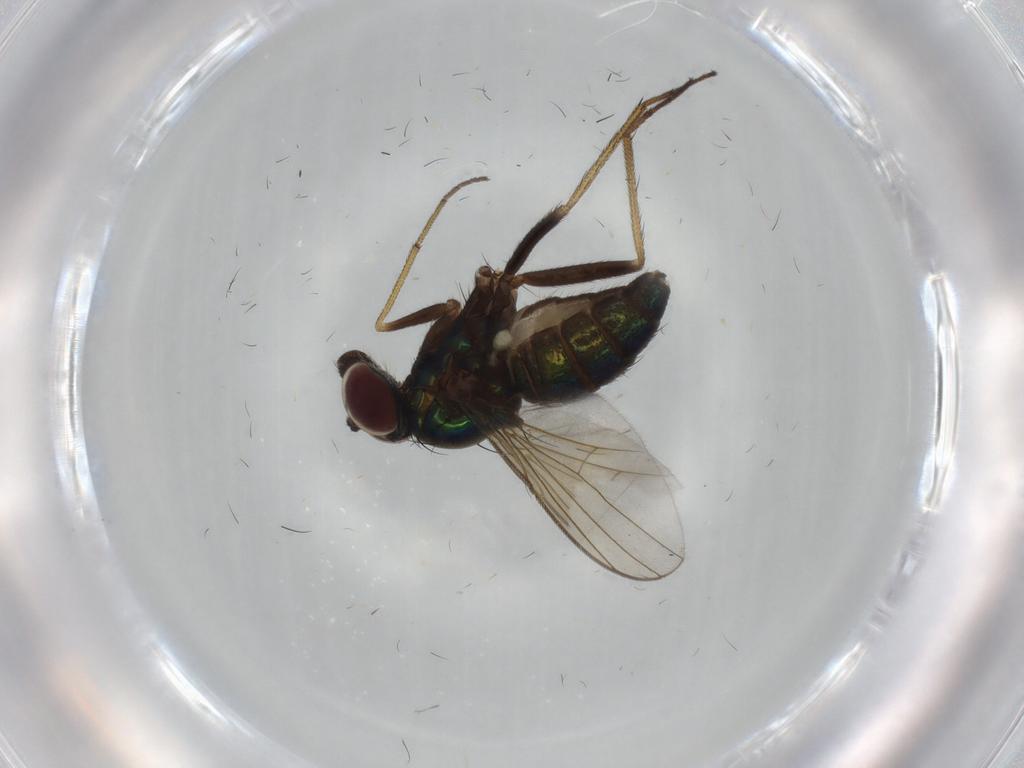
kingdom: Animalia
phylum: Arthropoda
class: Insecta
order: Diptera
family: Dolichopodidae
